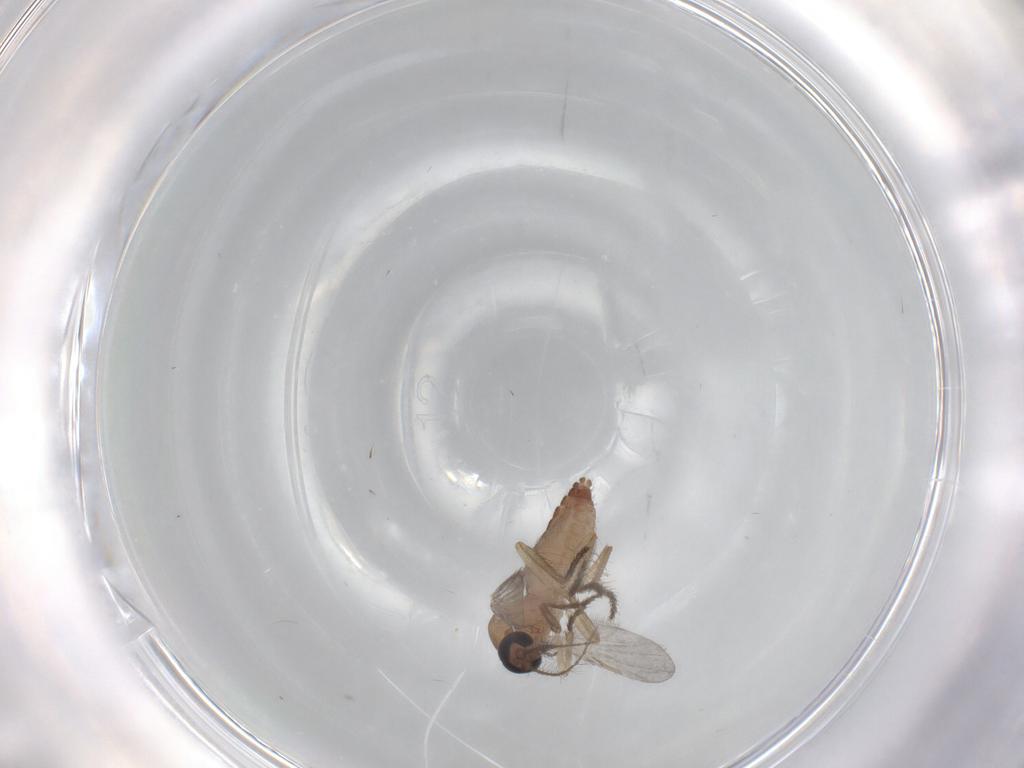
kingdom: Animalia
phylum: Arthropoda
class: Insecta
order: Diptera
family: Ceratopogonidae
